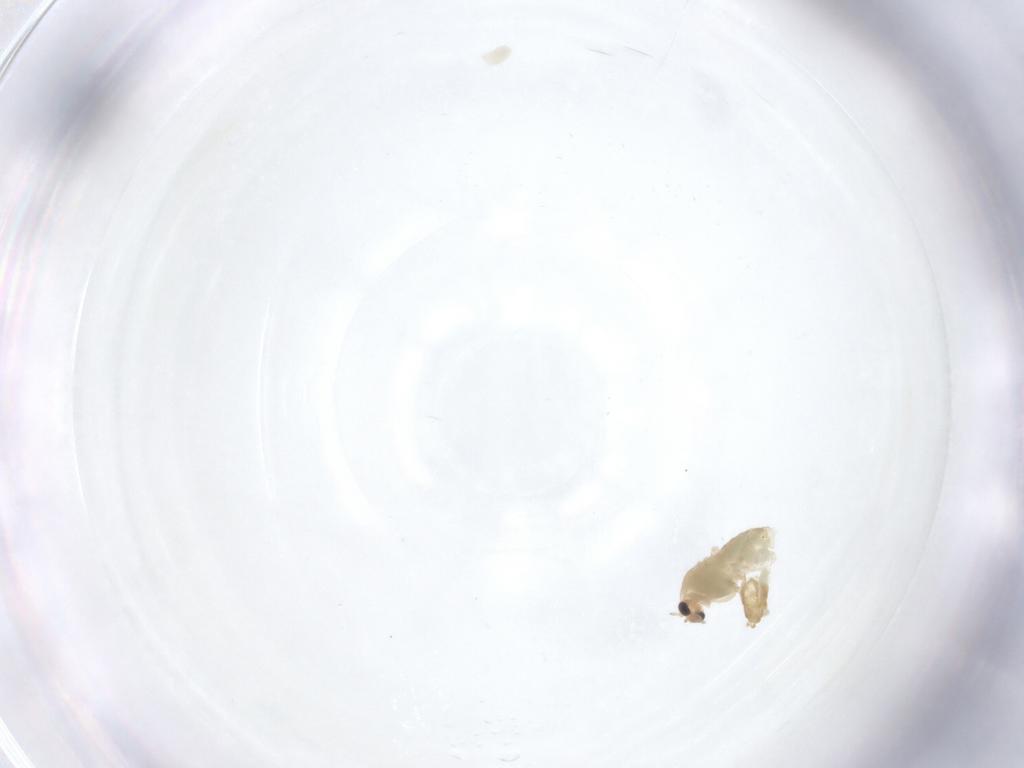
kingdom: Animalia
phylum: Arthropoda
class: Insecta
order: Diptera
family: Chironomidae
